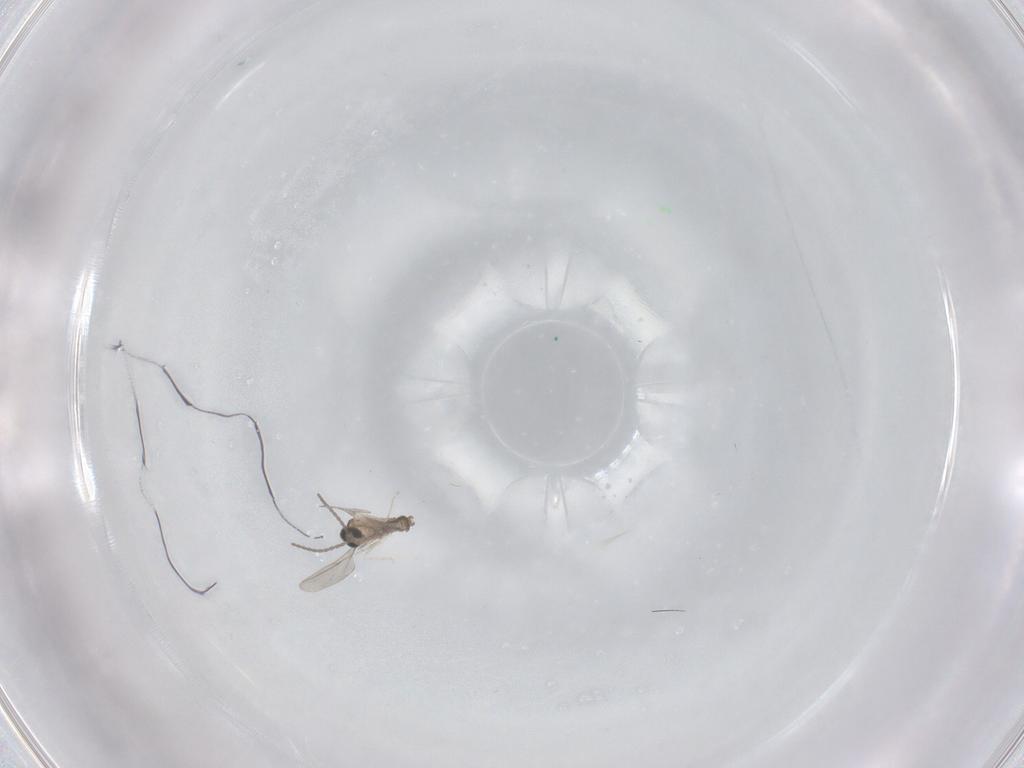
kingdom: Animalia
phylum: Arthropoda
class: Insecta
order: Diptera
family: Cecidomyiidae
